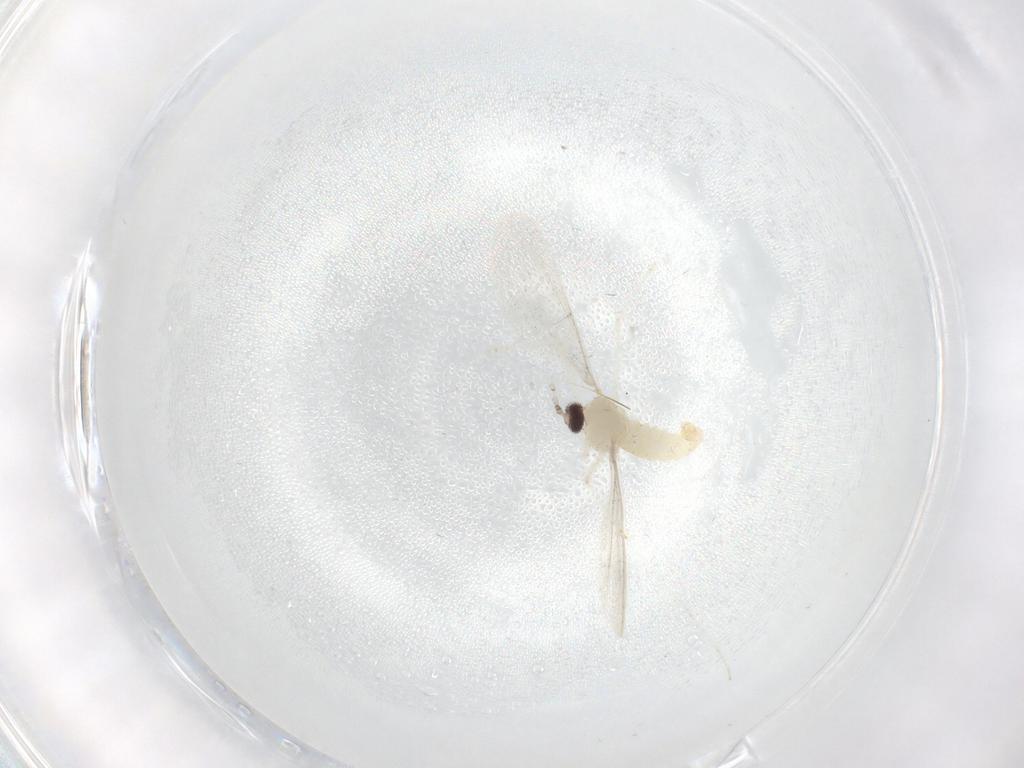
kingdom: Animalia
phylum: Arthropoda
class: Insecta
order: Diptera
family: Cecidomyiidae
